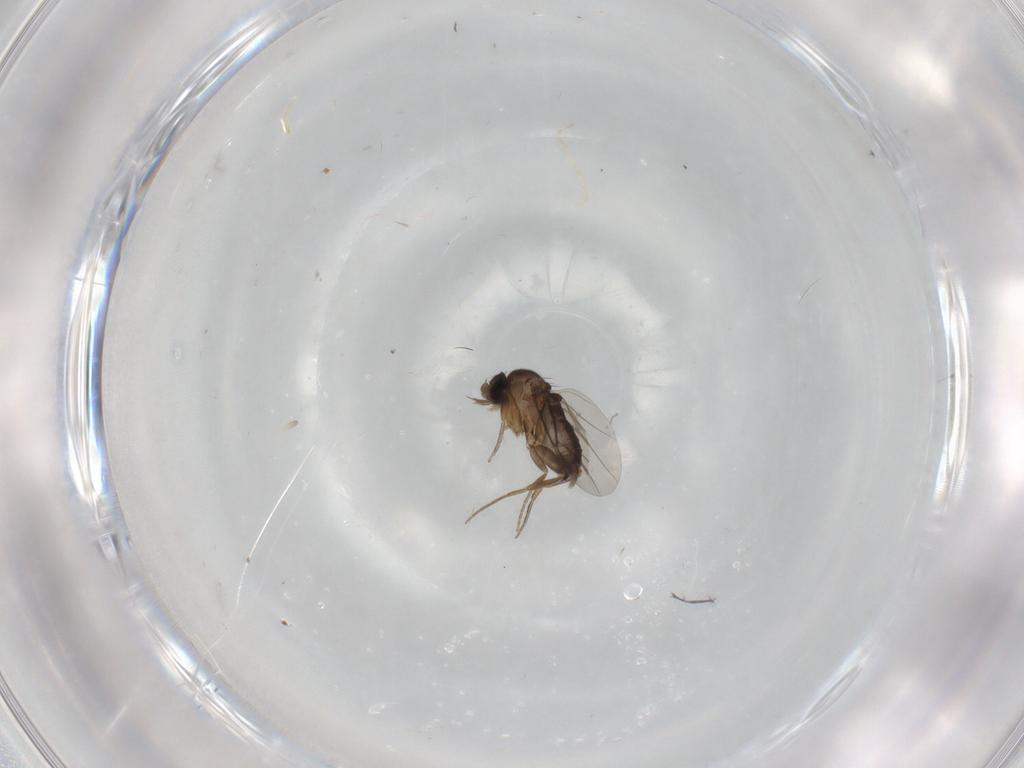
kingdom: Animalia
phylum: Arthropoda
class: Insecta
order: Diptera
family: Phoridae
